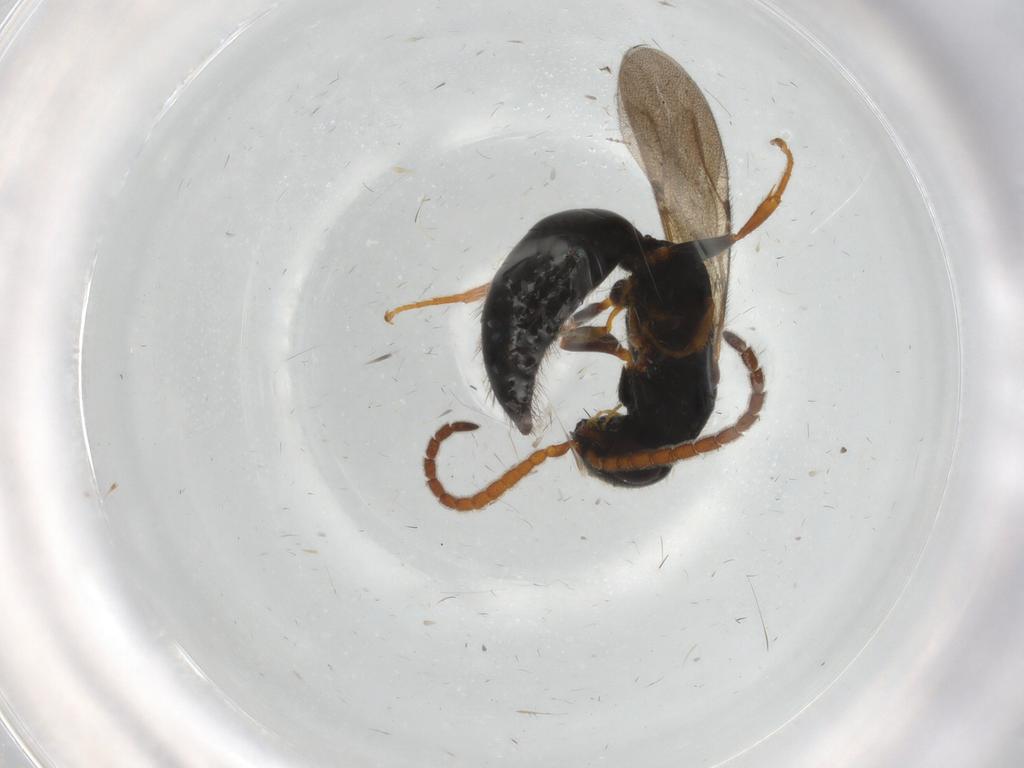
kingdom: Animalia
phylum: Arthropoda
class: Insecta
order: Hymenoptera
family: Bethylidae
